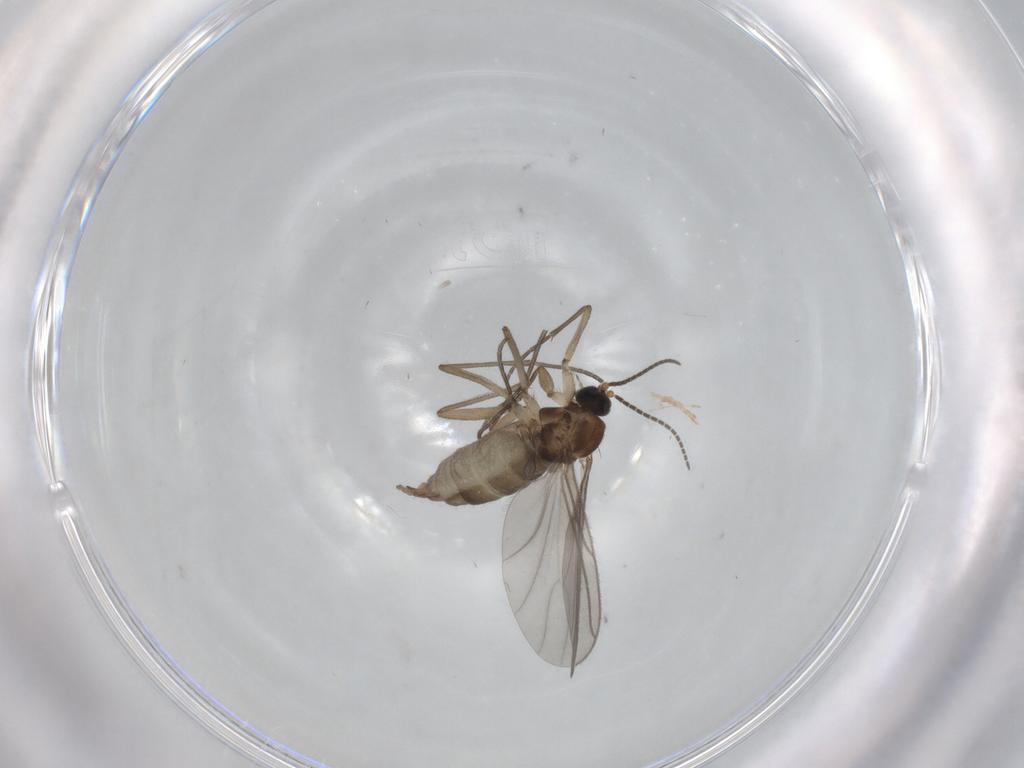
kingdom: Animalia
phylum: Arthropoda
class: Insecta
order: Diptera
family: Sciaridae
